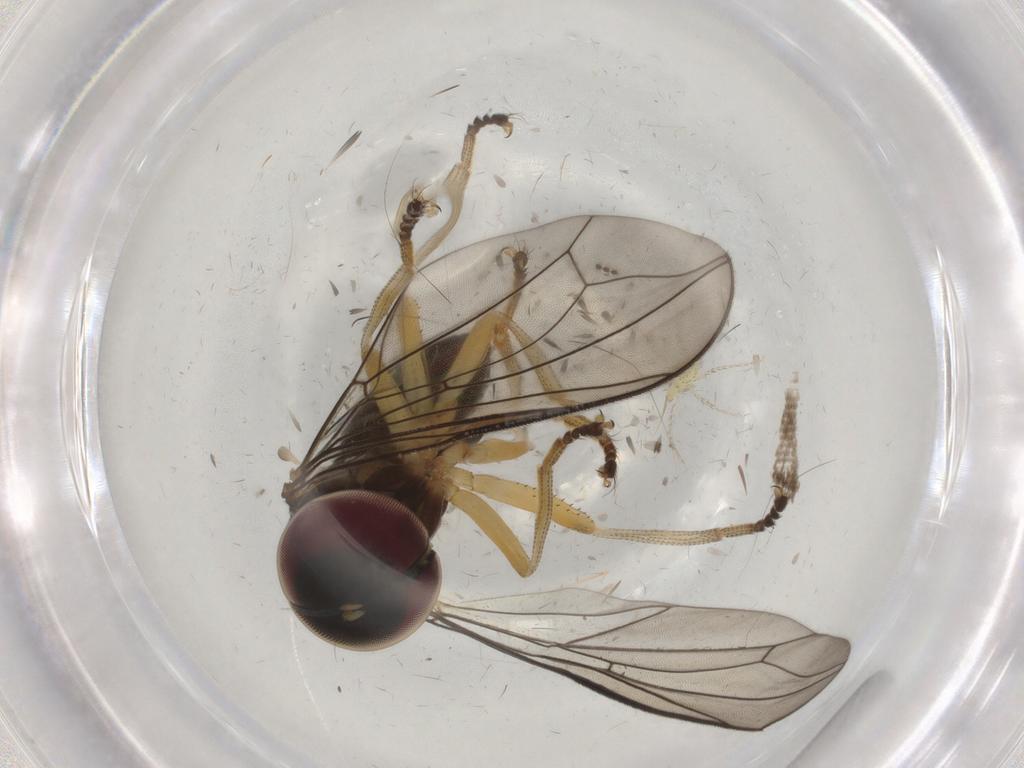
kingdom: Animalia
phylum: Arthropoda
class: Insecta
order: Diptera
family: Pipunculidae
